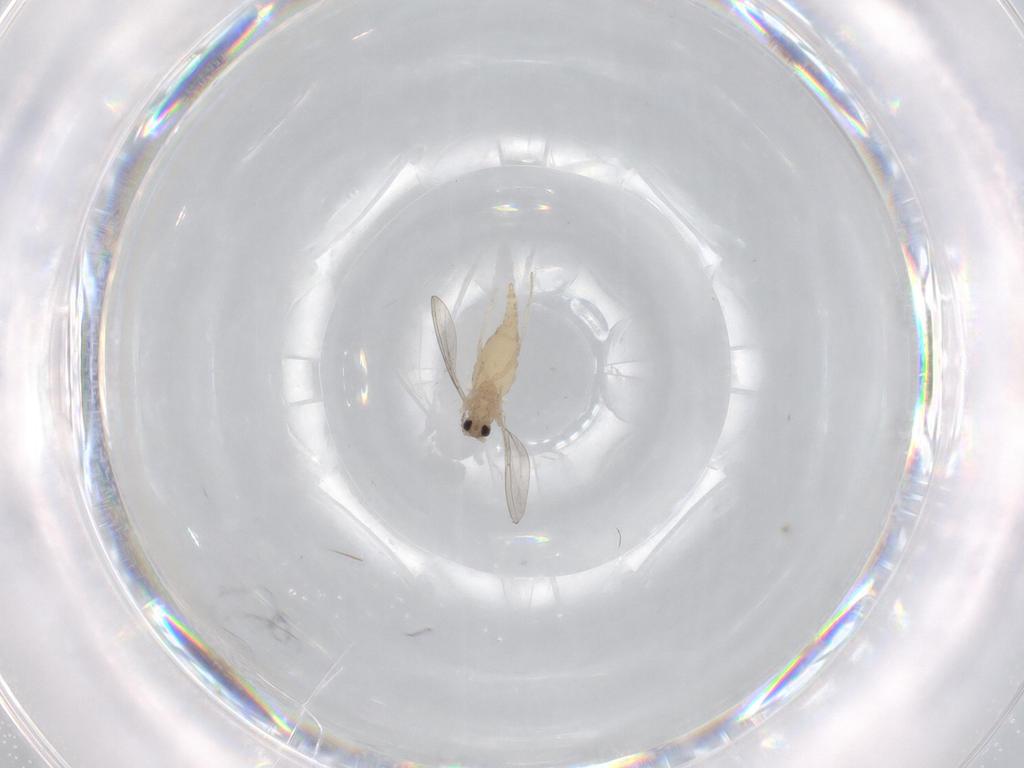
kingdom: Animalia
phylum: Arthropoda
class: Insecta
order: Diptera
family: Cecidomyiidae
